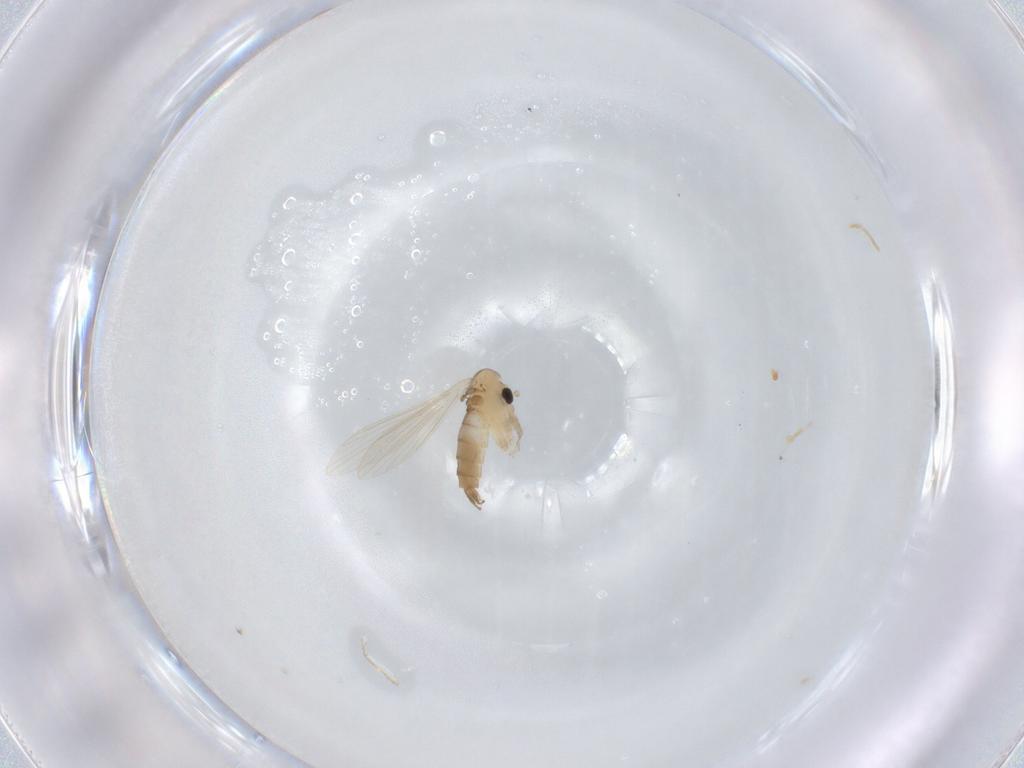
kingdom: Animalia
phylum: Arthropoda
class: Insecta
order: Diptera
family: Psychodidae
